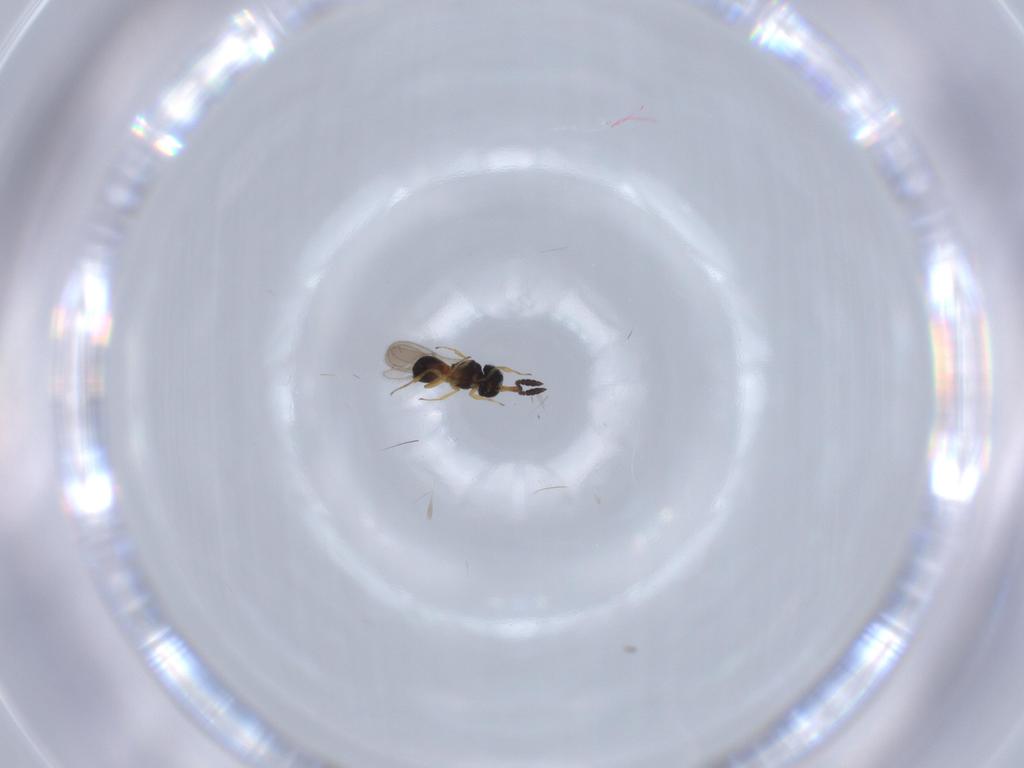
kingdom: Animalia
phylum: Arthropoda
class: Insecta
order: Hymenoptera
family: Scelionidae
